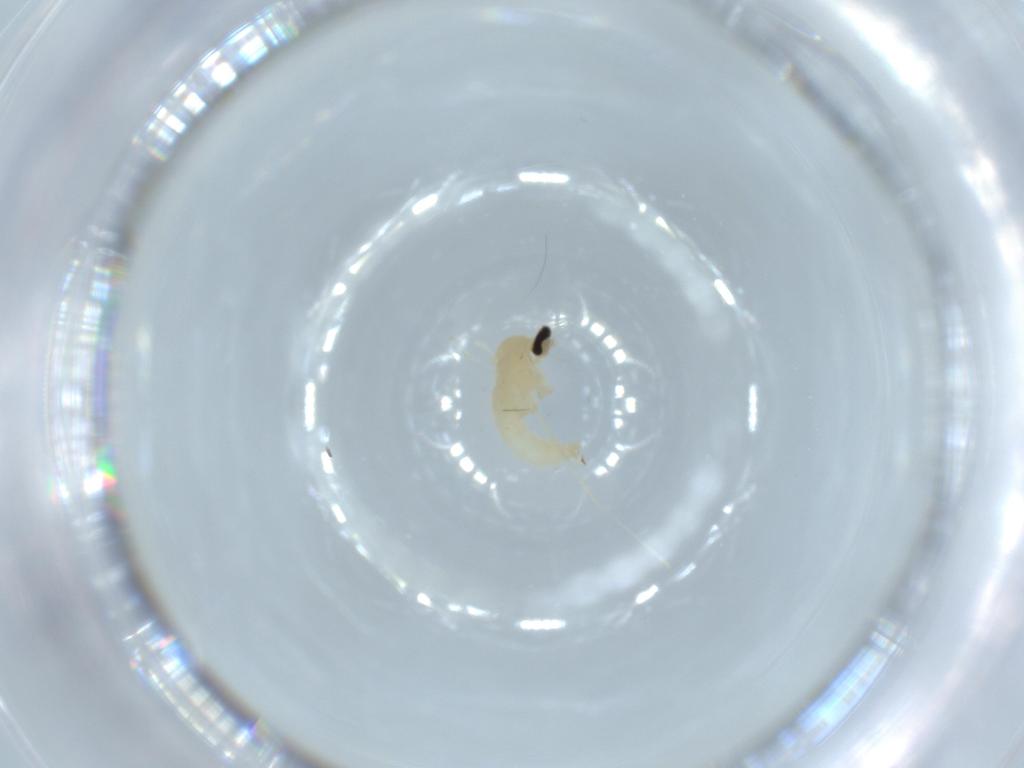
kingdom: Animalia
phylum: Arthropoda
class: Insecta
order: Diptera
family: Cecidomyiidae
